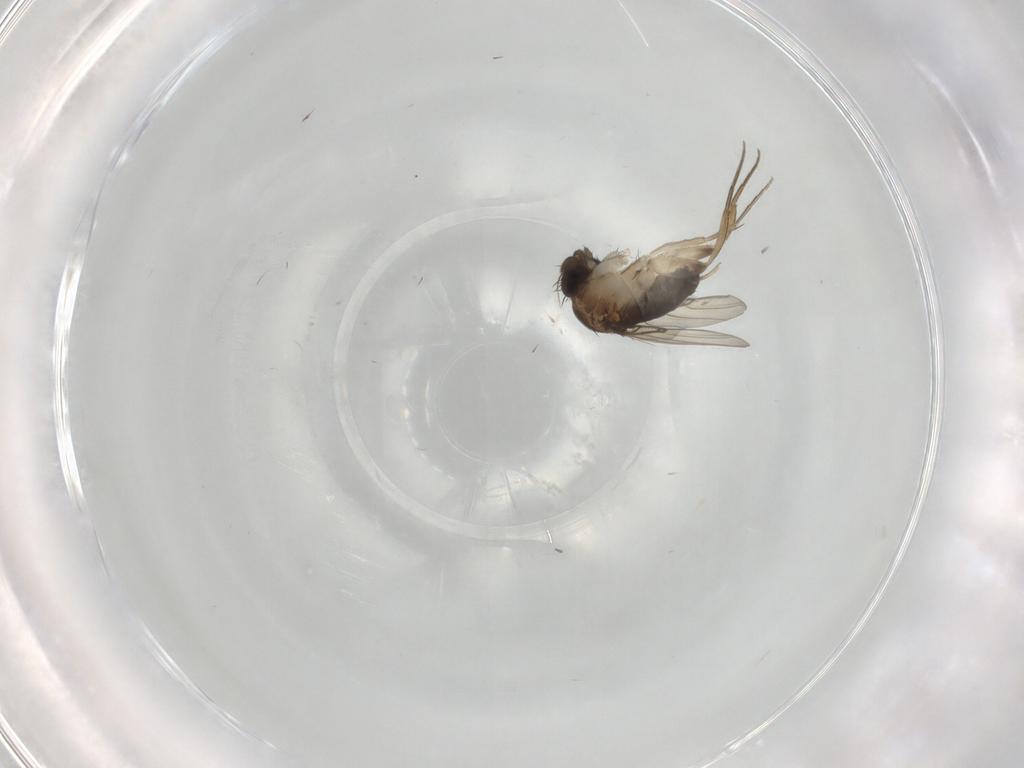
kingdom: Animalia
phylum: Arthropoda
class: Insecta
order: Diptera
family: Phoridae
